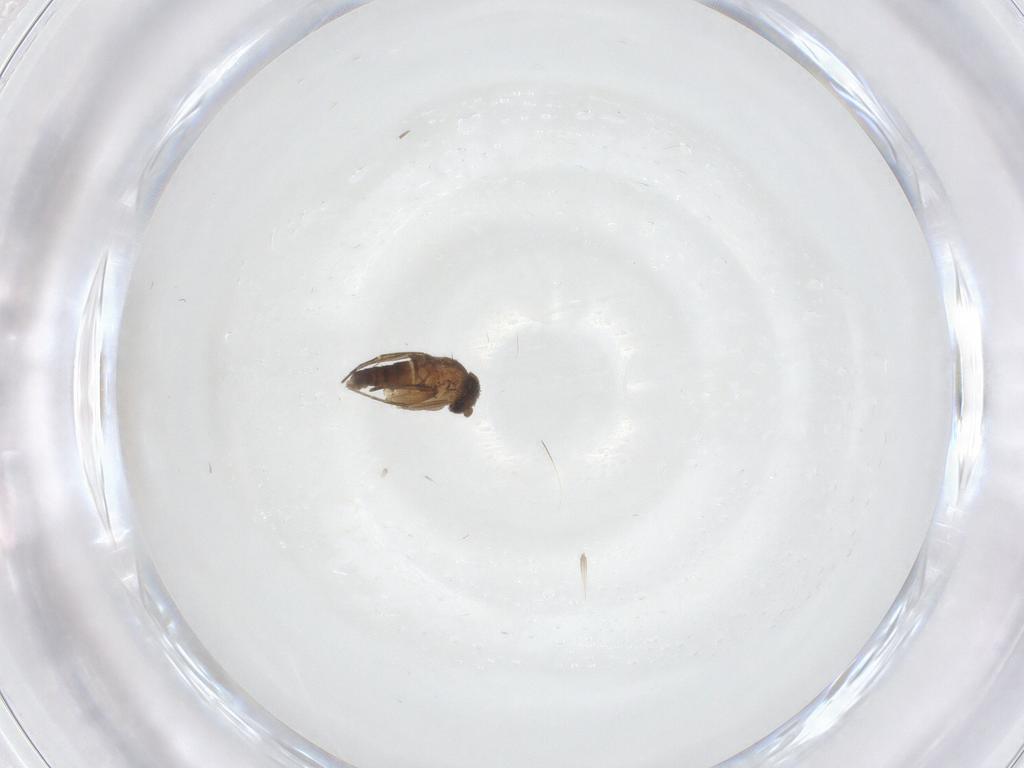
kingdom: Animalia
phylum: Arthropoda
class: Insecta
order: Diptera
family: Phoridae
